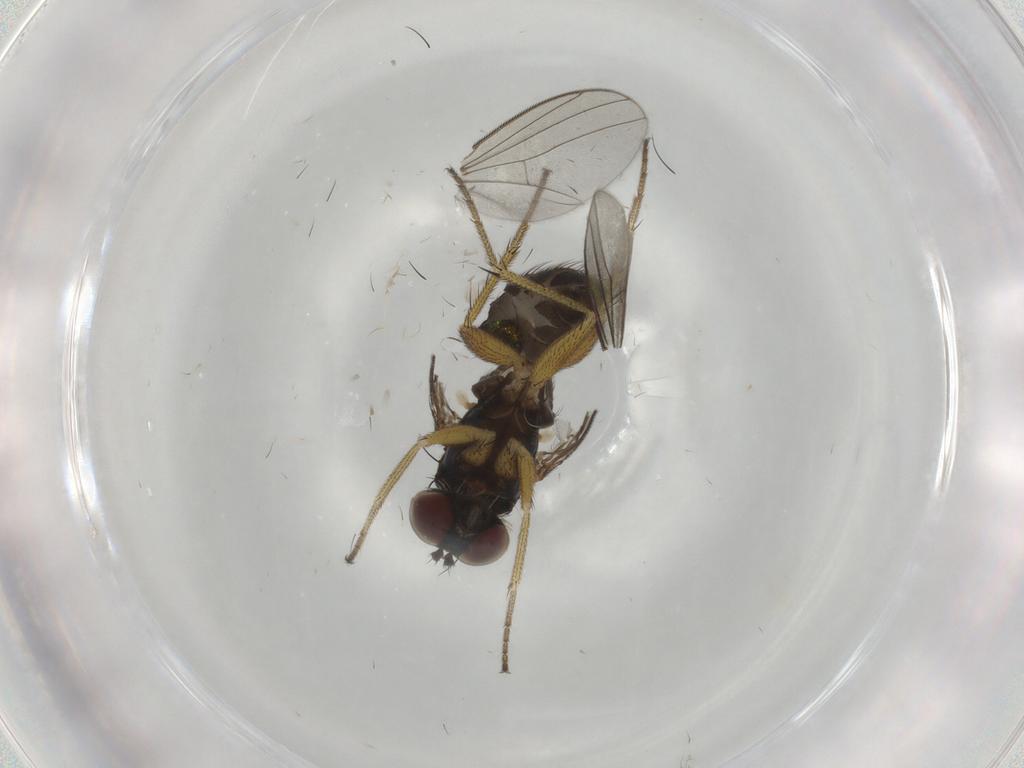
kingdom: Animalia
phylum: Arthropoda
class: Insecta
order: Diptera
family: Dolichopodidae
